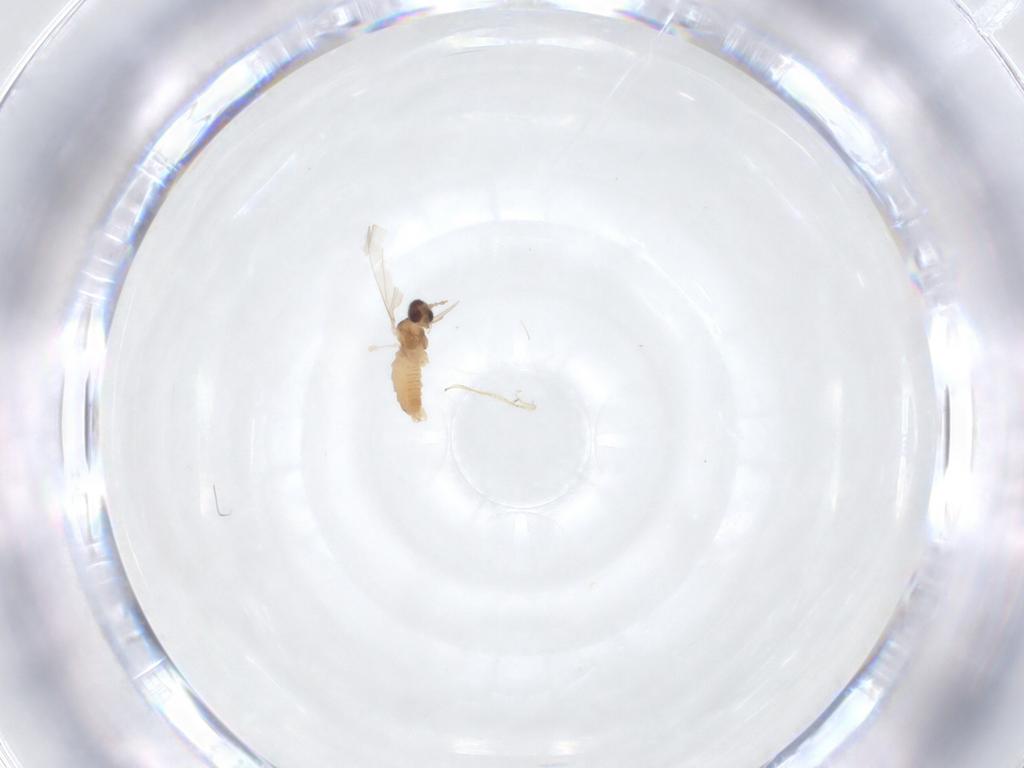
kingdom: Animalia
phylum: Arthropoda
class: Insecta
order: Diptera
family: Cecidomyiidae
